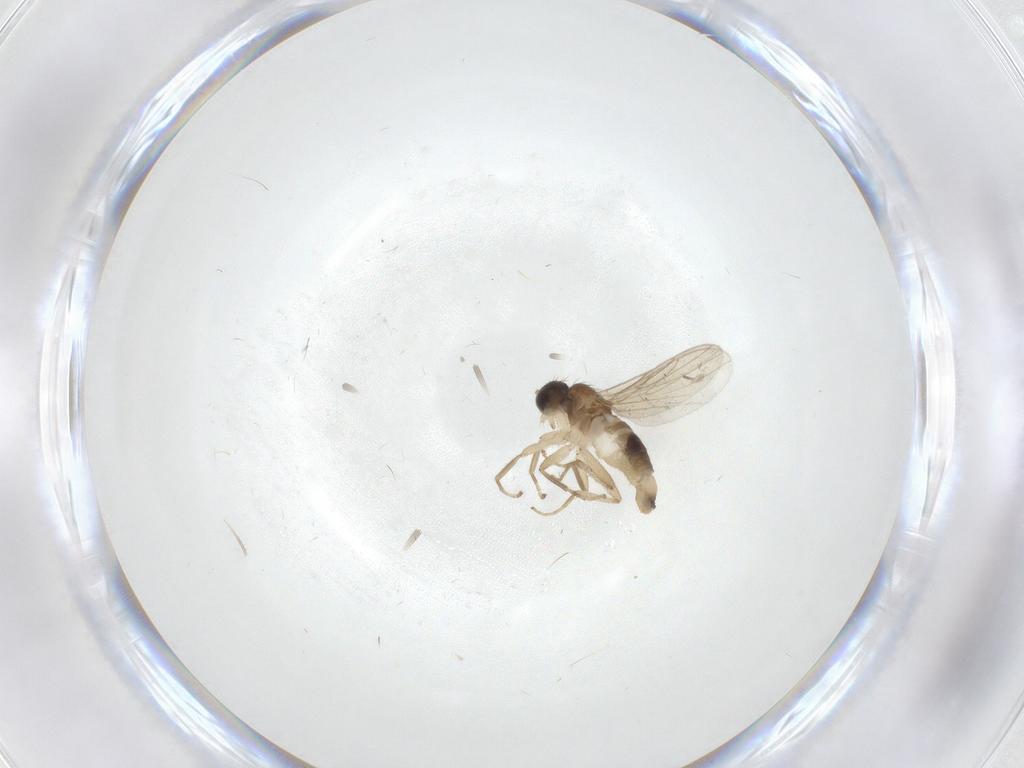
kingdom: Animalia
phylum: Arthropoda
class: Insecta
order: Diptera
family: Hybotidae
